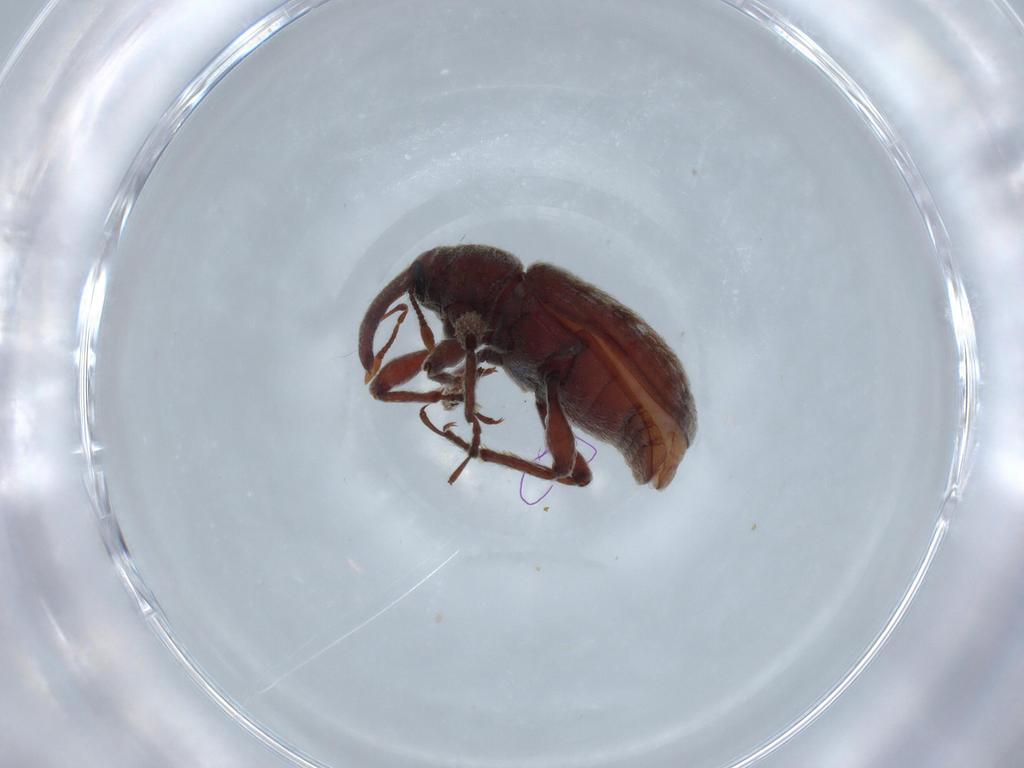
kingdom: Animalia
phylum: Arthropoda
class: Insecta
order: Coleoptera
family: Curculionidae
